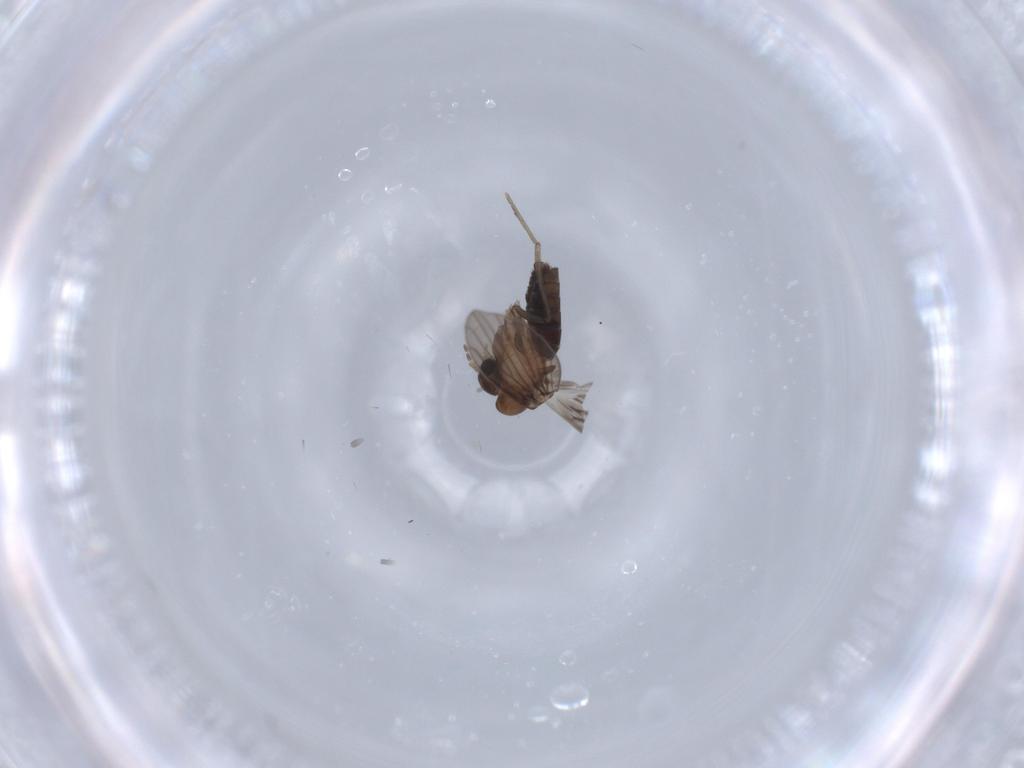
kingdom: Animalia
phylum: Arthropoda
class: Insecta
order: Diptera
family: Psychodidae
